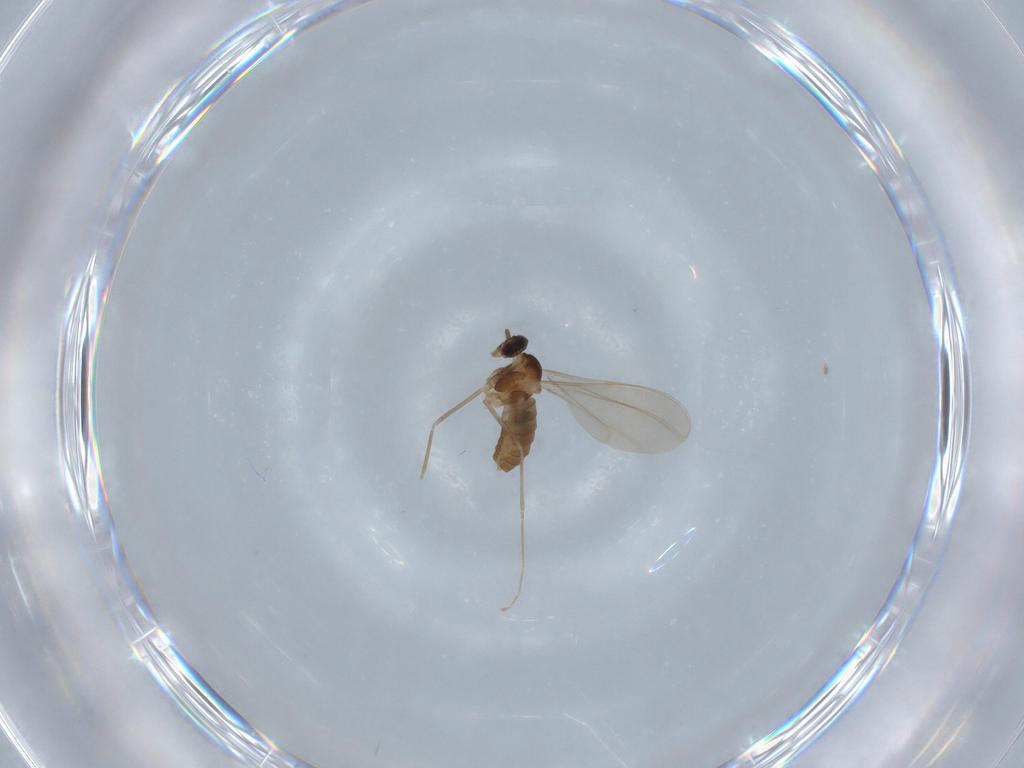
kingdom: Animalia
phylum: Arthropoda
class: Insecta
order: Diptera
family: Cecidomyiidae
